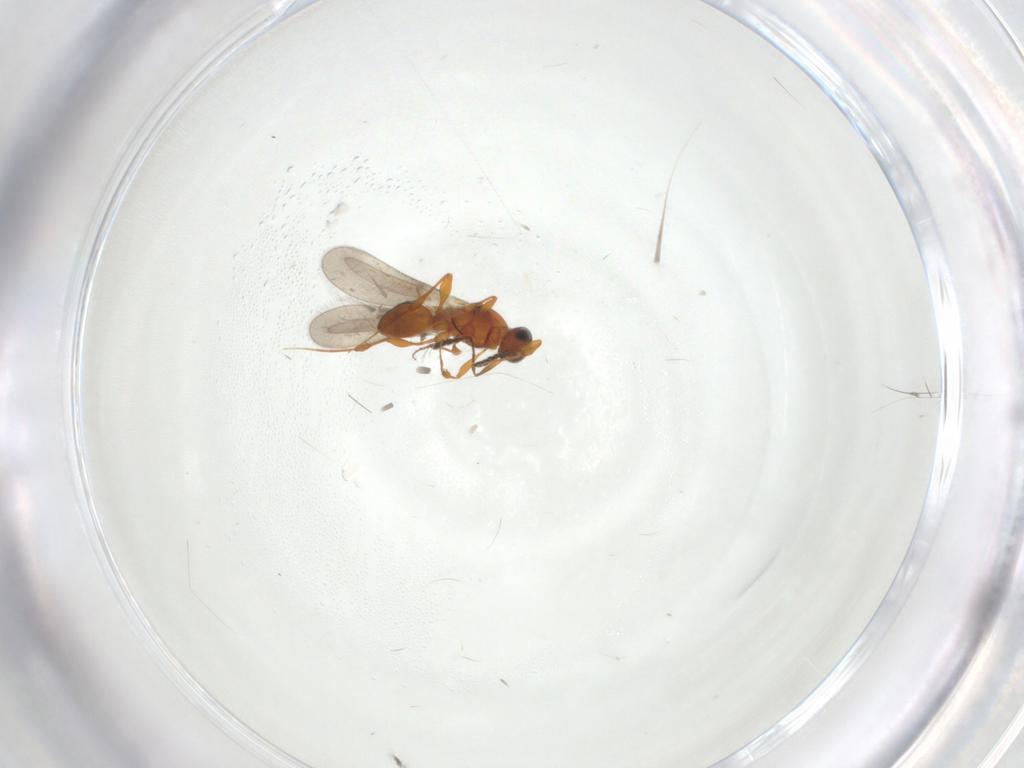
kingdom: Animalia
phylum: Arthropoda
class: Insecta
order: Hymenoptera
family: Platygastridae
